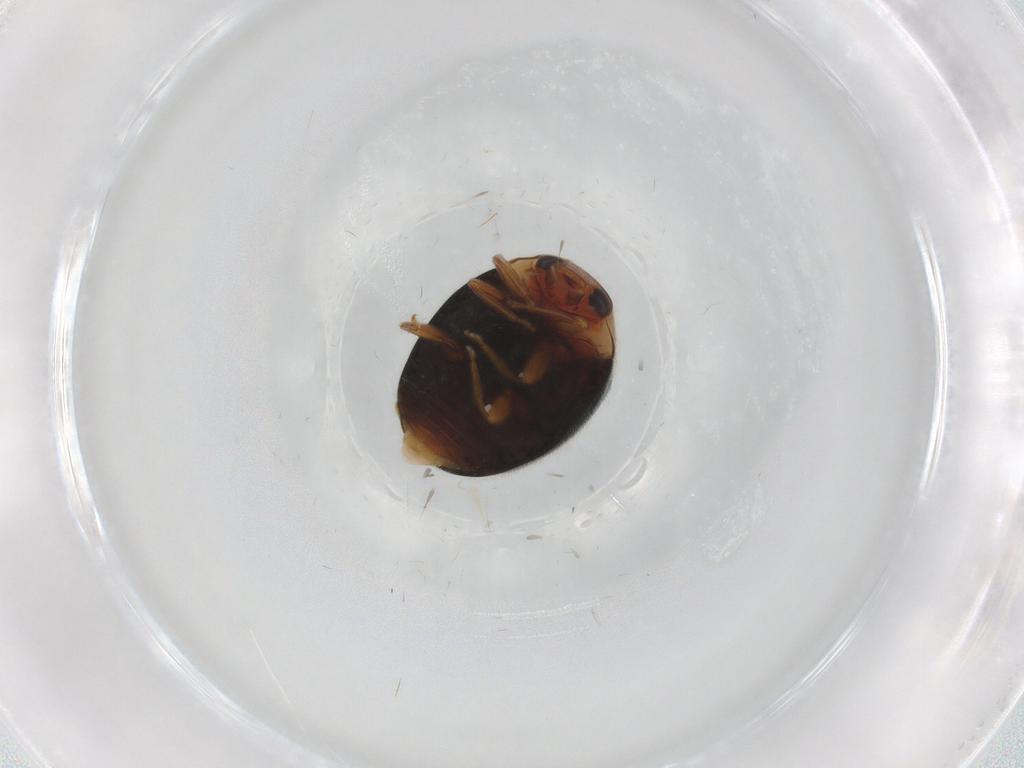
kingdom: Animalia
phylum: Arthropoda
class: Insecta
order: Coleoptera
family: Coccinellidae
